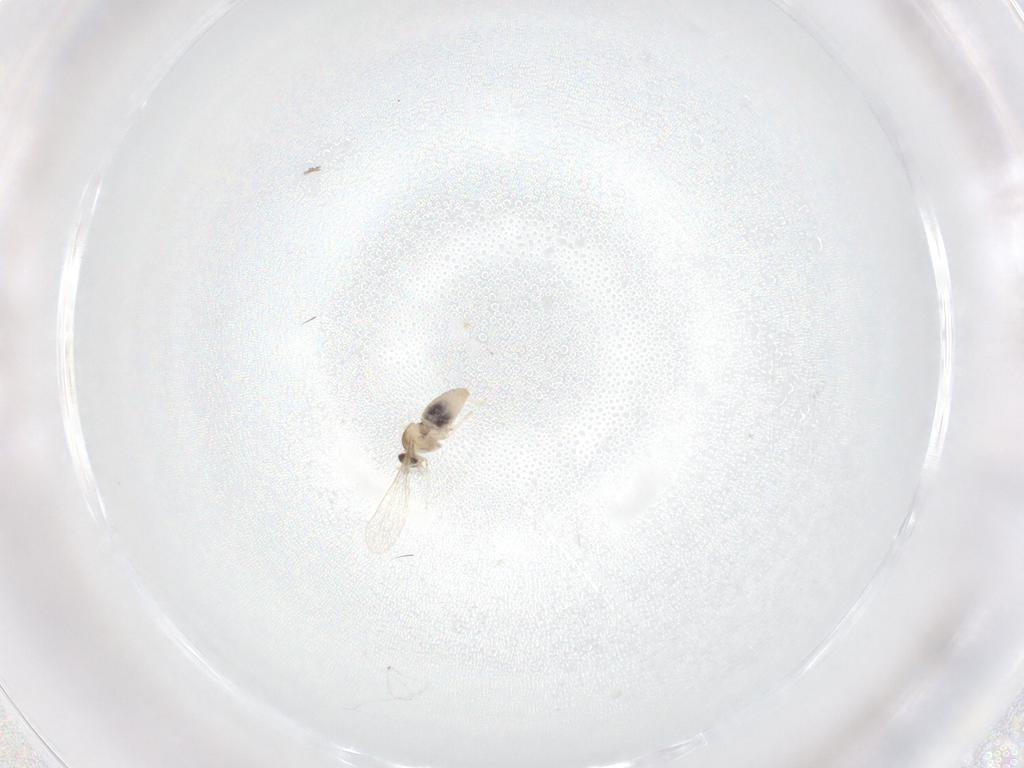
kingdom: Animalia
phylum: Arthropoda
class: Insecta
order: Diptera
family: Cecidomyiidae
